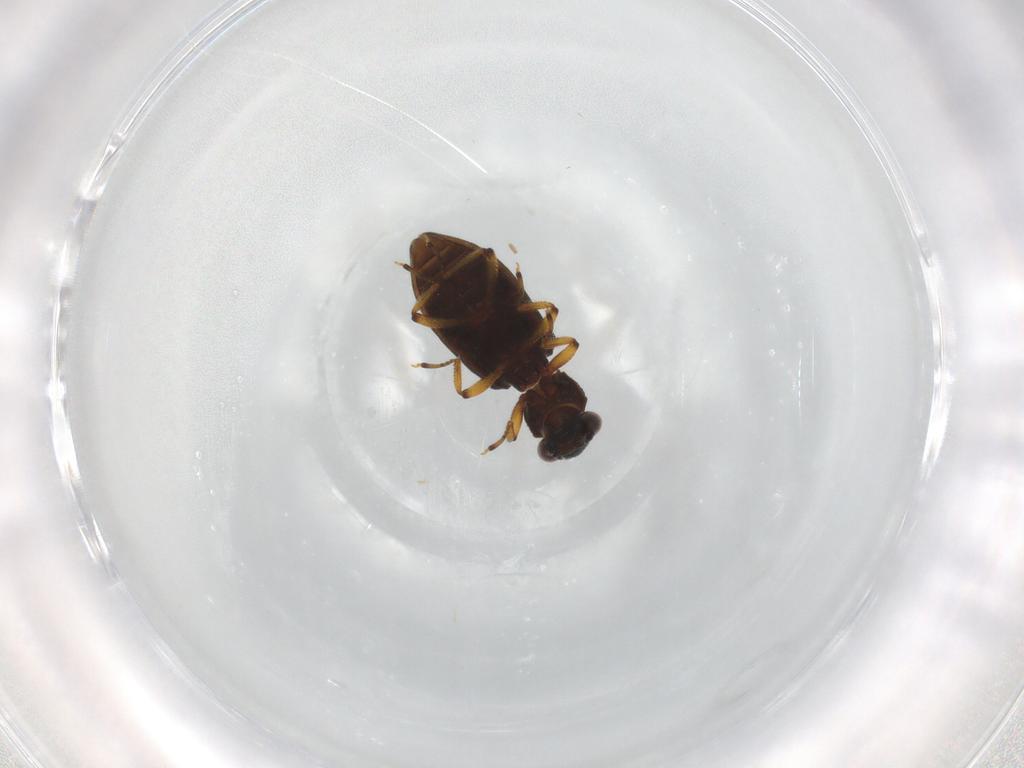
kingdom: Animalia
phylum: Arthropoda
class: Insecta
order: Coleoptera
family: Hydrophilidae
